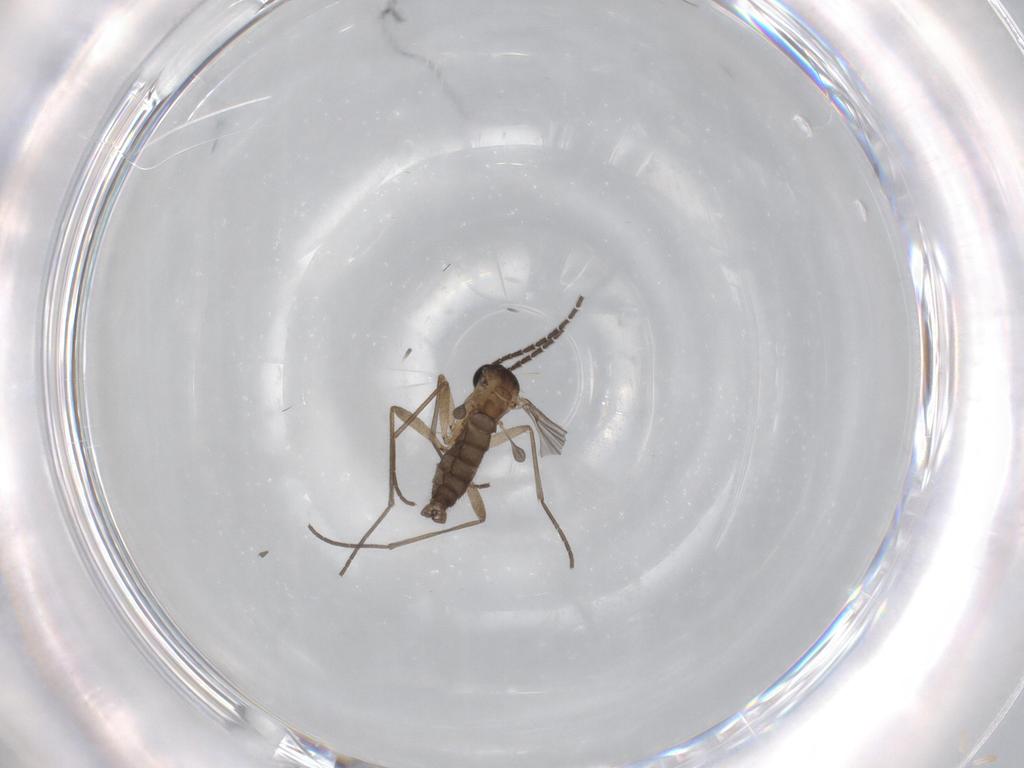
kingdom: Animalia
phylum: Arthropoda
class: Insecta
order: Diptera
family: Sciaridae
